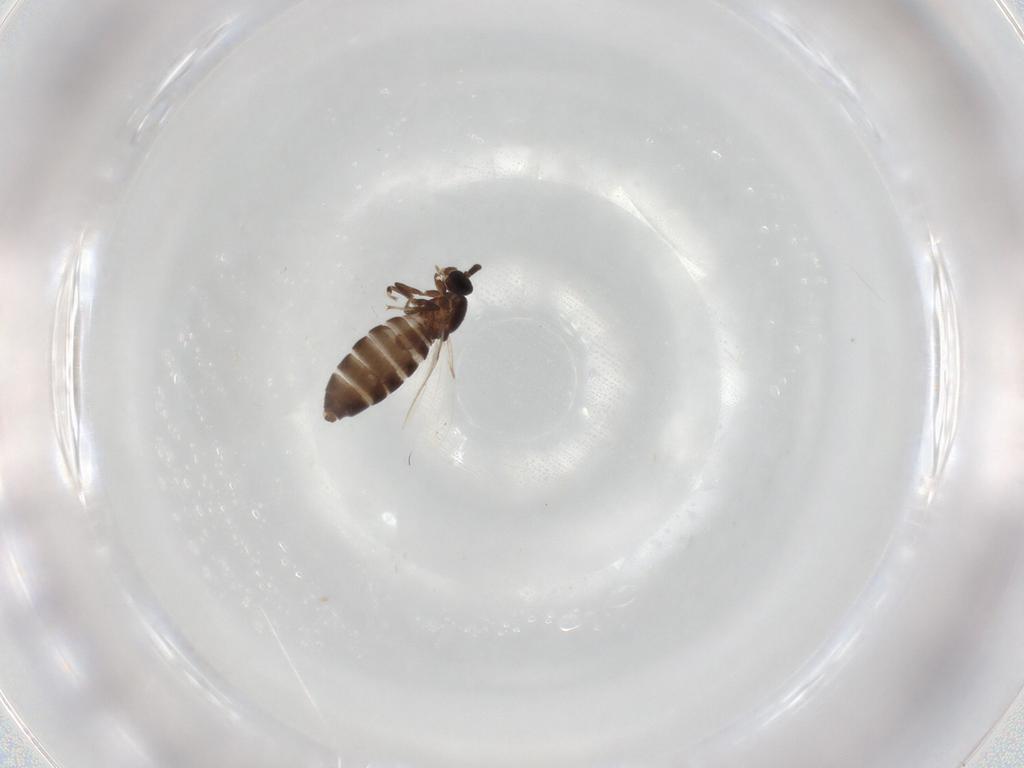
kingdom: Animalia
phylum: Arthropoda
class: Insecta
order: Diptera
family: Scatopsidae
